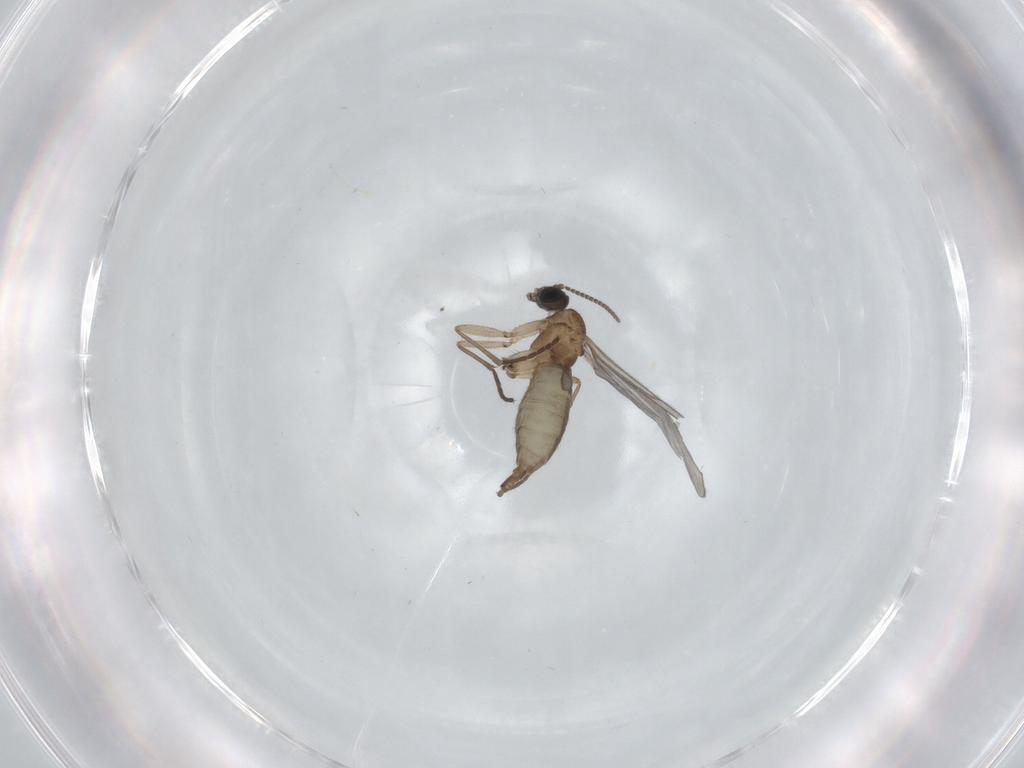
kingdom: Animalia
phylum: Arthropoda
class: Insecta
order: Diptera
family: Sciaridae
